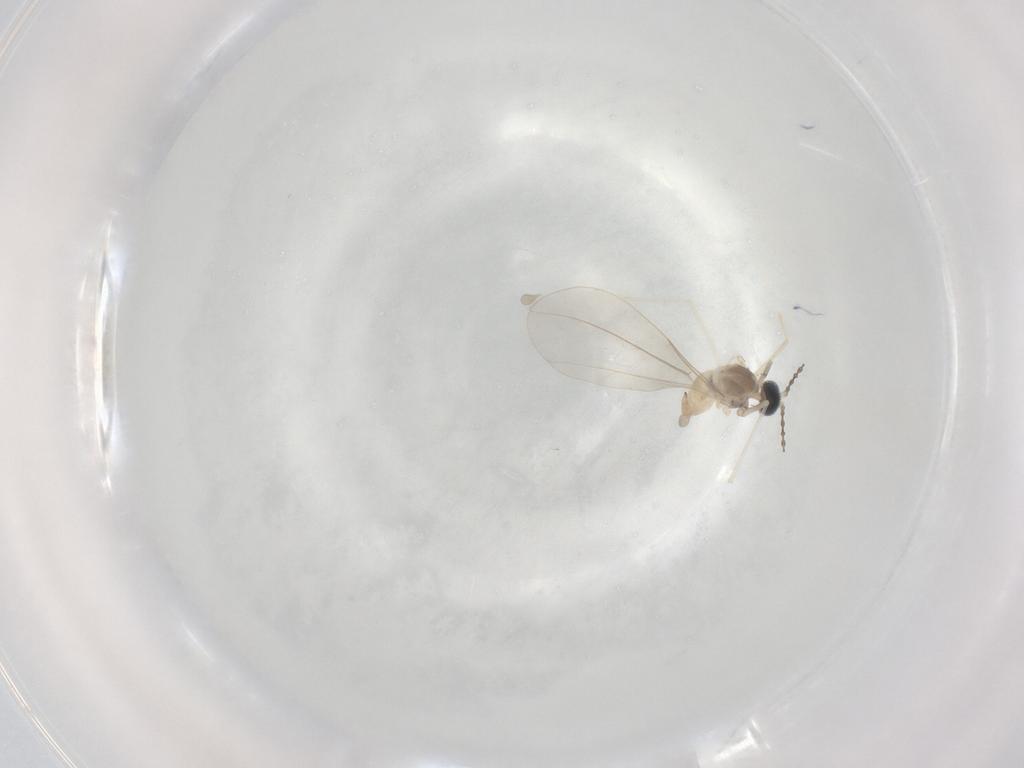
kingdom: Animalia
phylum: Arthropoda
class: Insecta
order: Diptera
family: Cecidomyiidae
